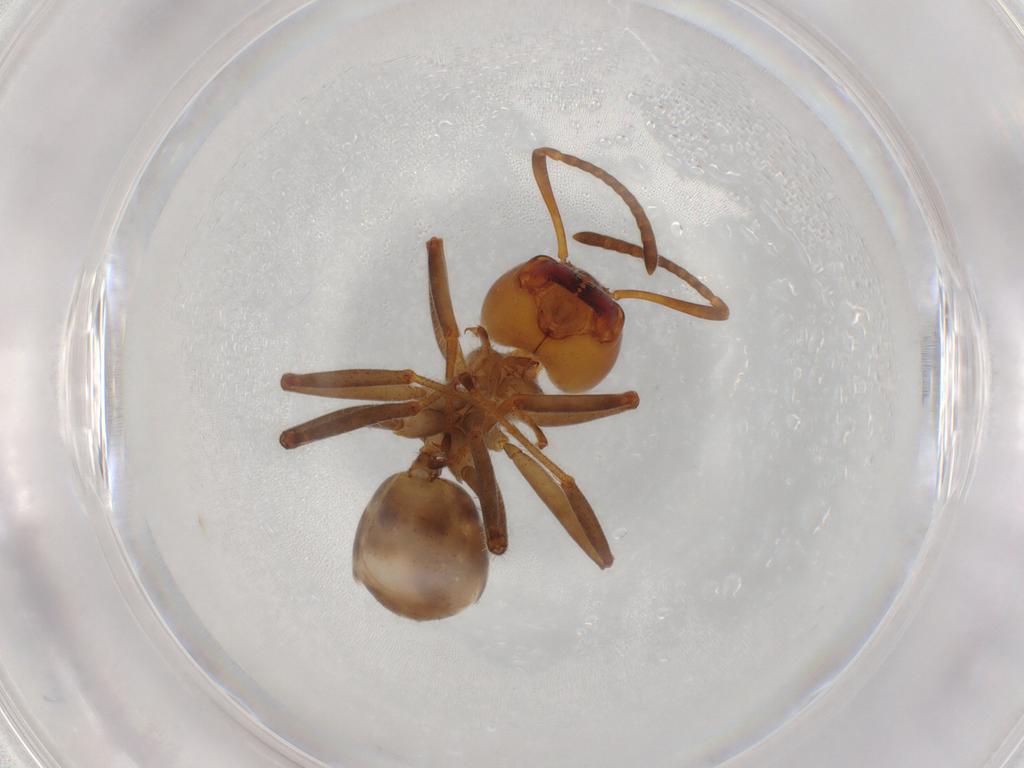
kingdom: Animalia
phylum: Arthropoda
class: Insecta
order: Hymenoptera
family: Formicidae
